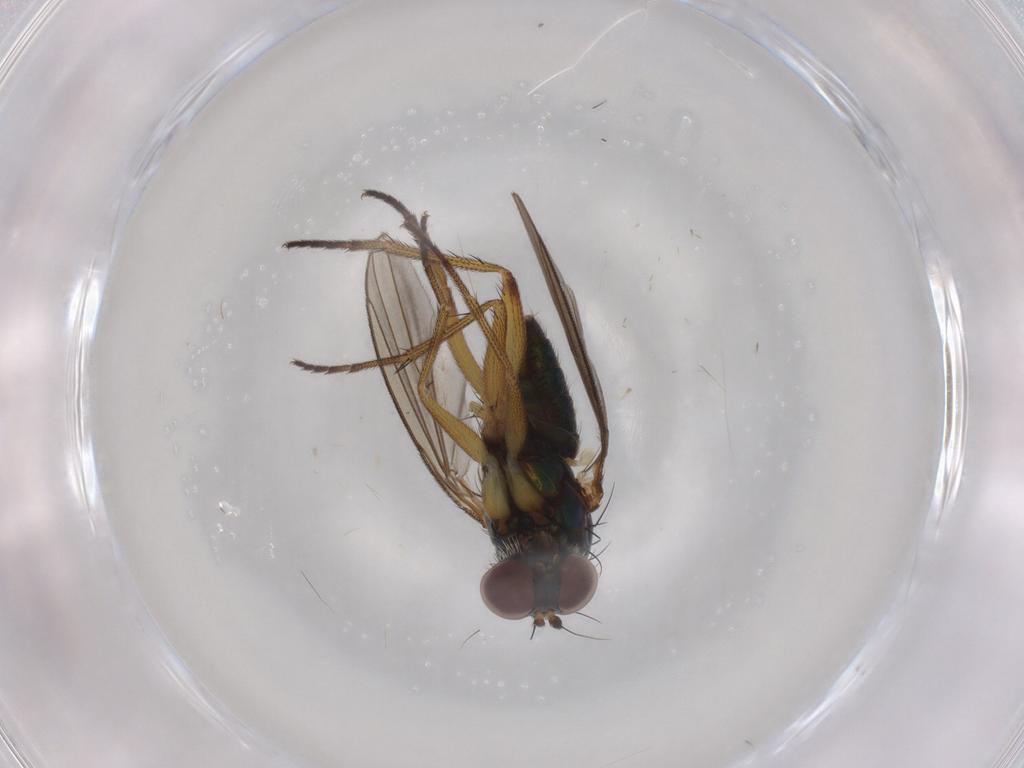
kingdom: Animalia
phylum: Arthropoda
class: Insecta
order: Diptera
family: Dolichopodidae
